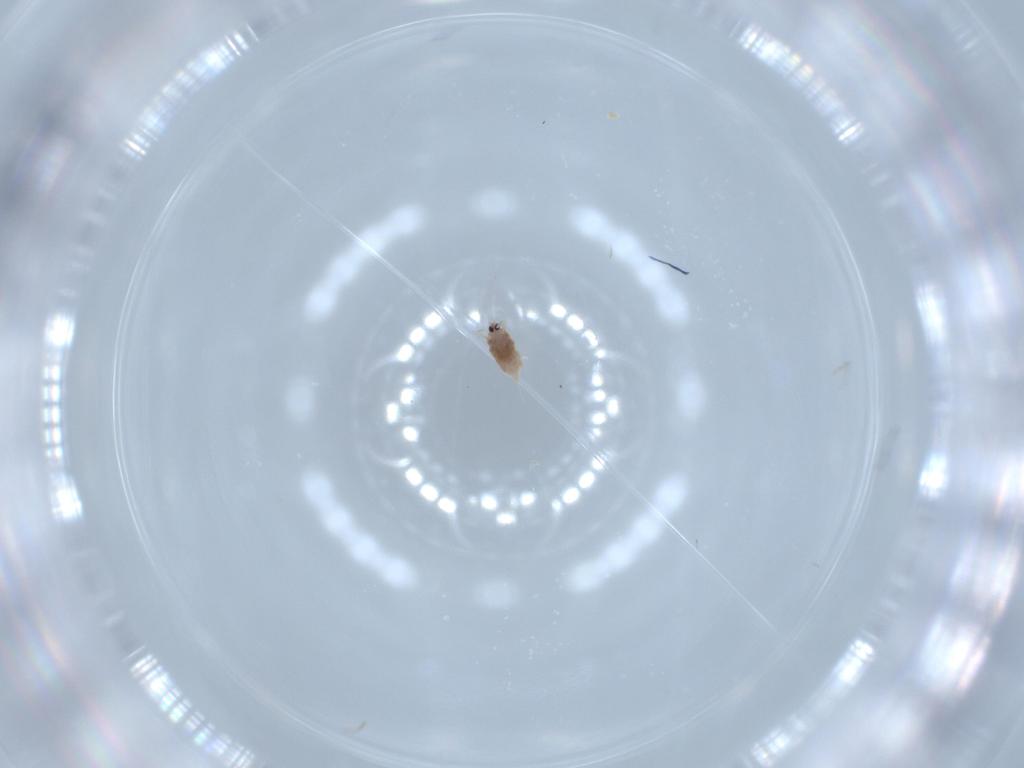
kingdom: Animalia
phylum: Arthropoda
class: Insecta
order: Hemiptera
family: Diaspididae
